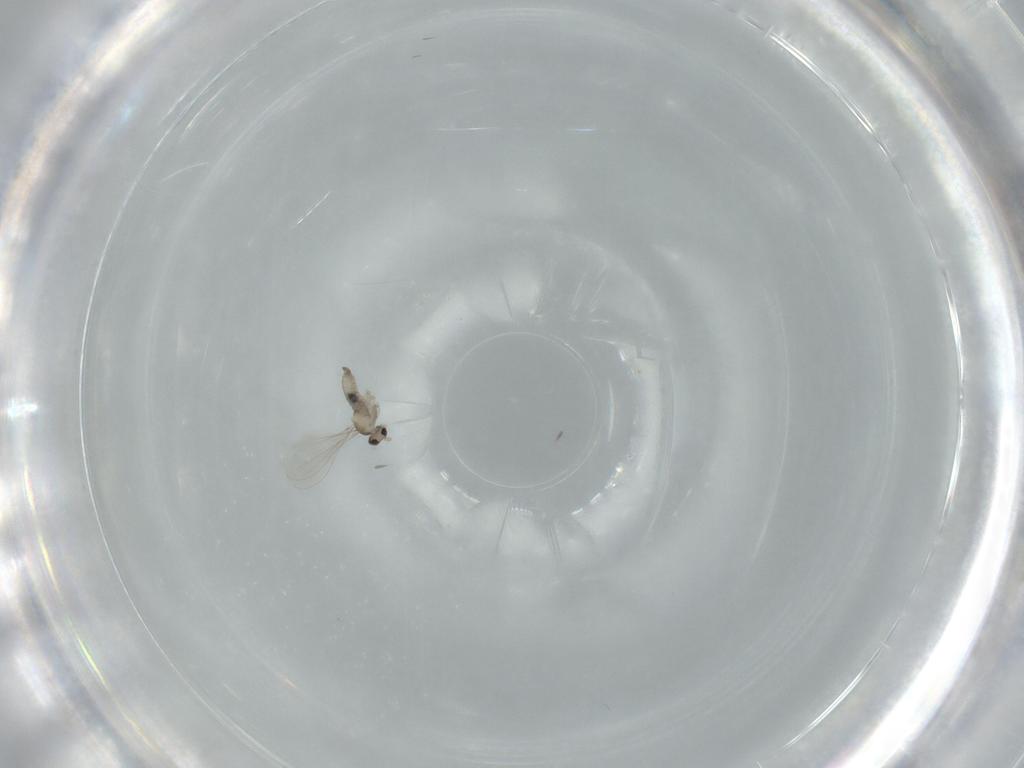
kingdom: Animalia
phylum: Arthropoda
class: Insecta
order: Diptera
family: Cecidomyiidae
